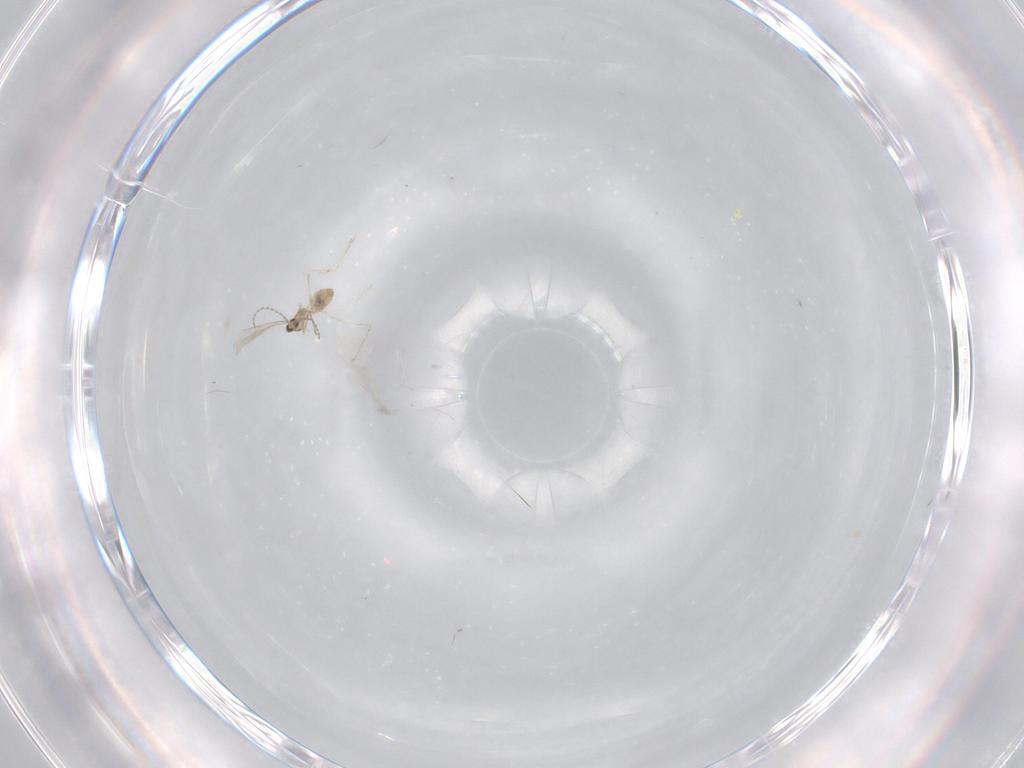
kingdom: Animalia
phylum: Arthropoda
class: Insecta
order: Diptera
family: Cecidomyiidae
